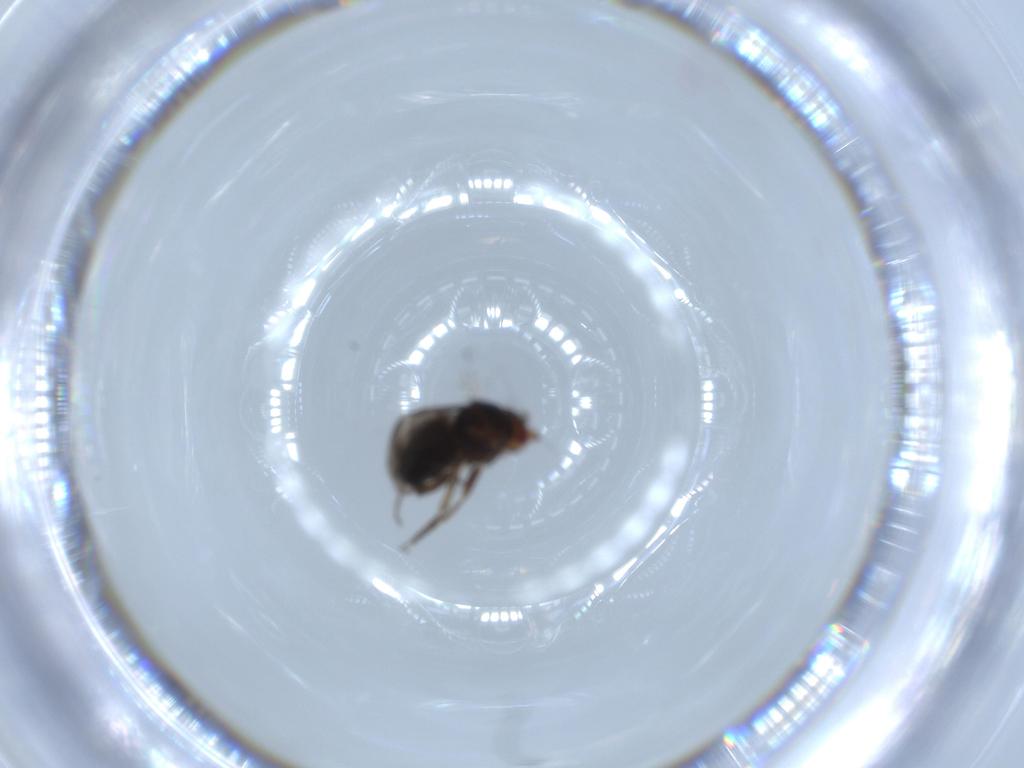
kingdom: Animalia
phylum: Arthropoda
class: Insecta
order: Diptera
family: Sphaeroceridae
